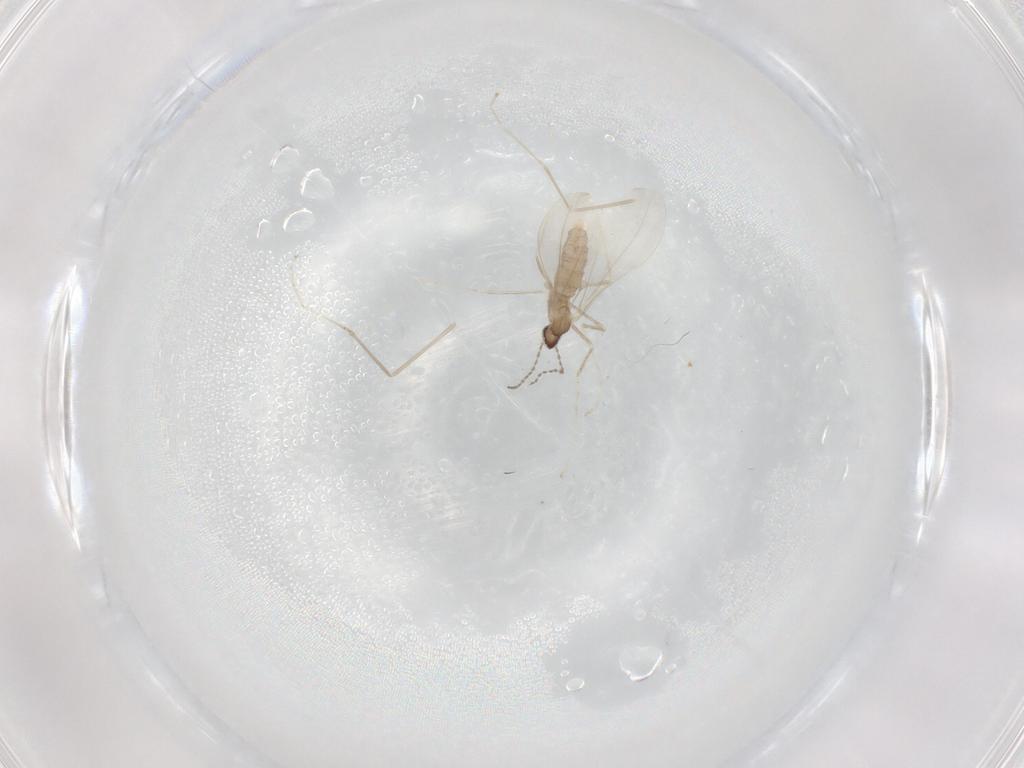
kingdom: Animalia
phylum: Arthropoda
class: Insecta
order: Diptera
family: Cecidomyiidae
